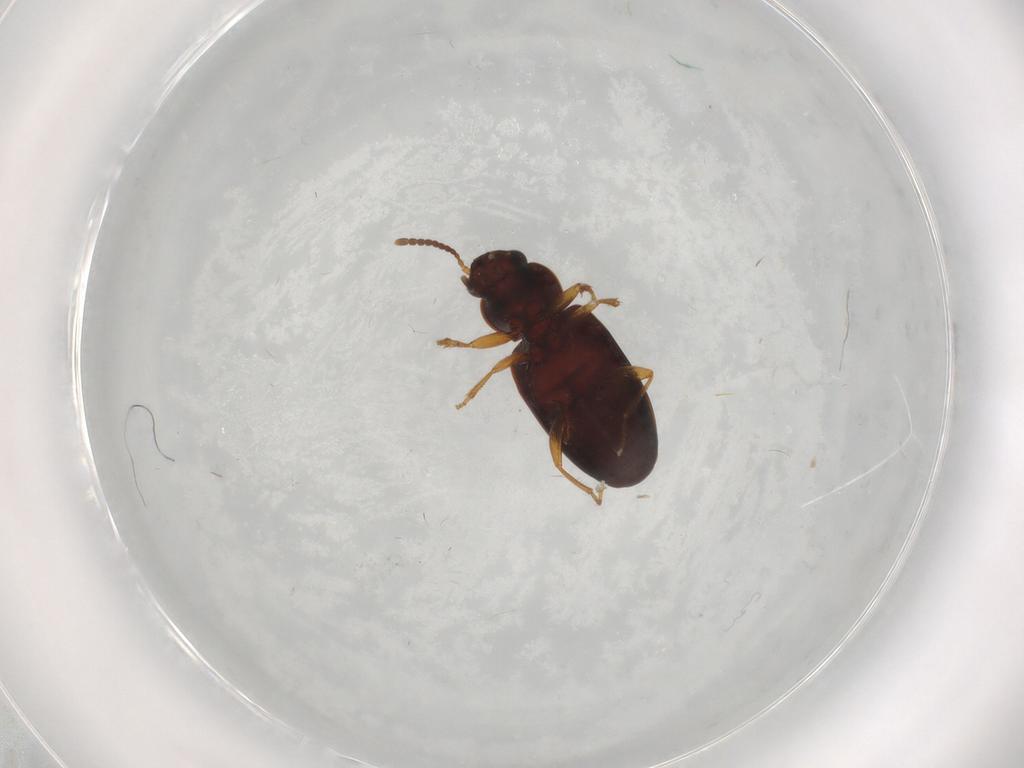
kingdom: Animalia
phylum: Arthropoda
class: Insecta
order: Coleoptera
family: Carabidae
